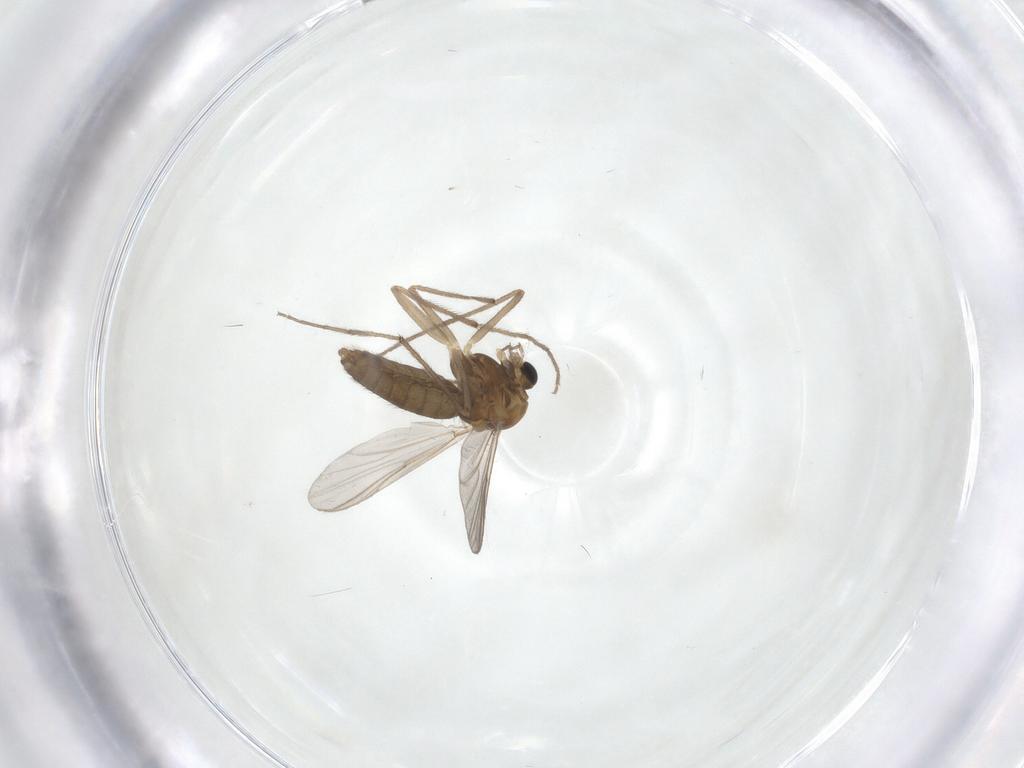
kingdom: Animalia
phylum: Arthropoda
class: Insecta
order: Diptera
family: Chironomidae
